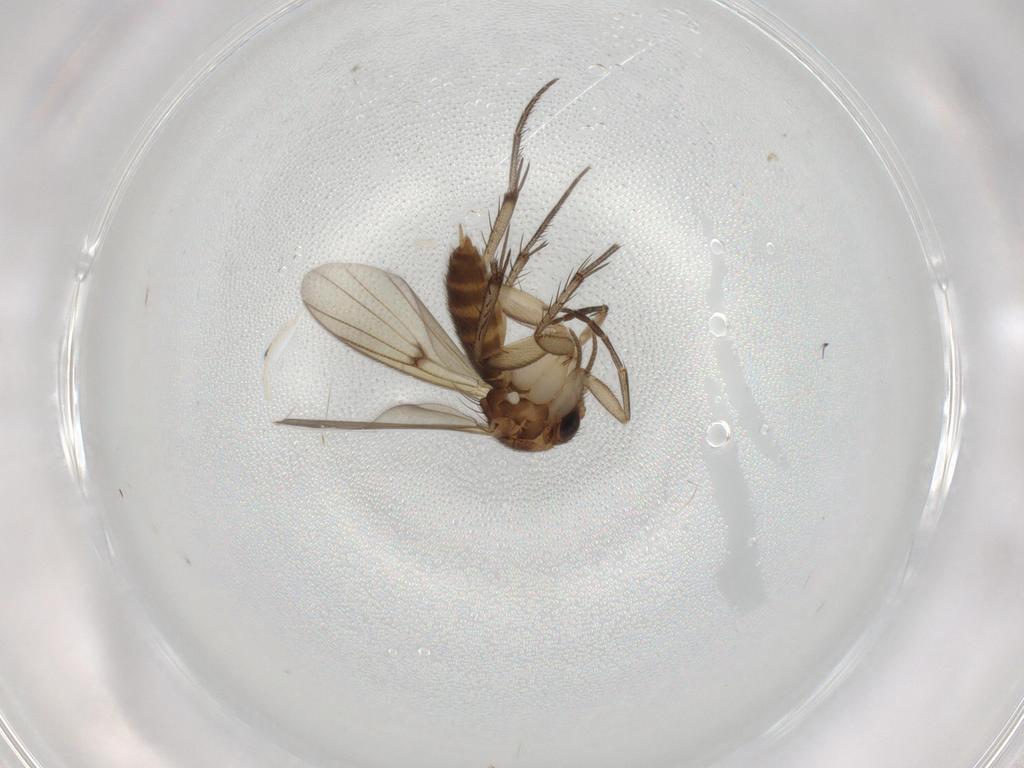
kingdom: Animalia
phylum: Arthropoda
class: Insecta
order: Diptera
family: Mycetophilidae
